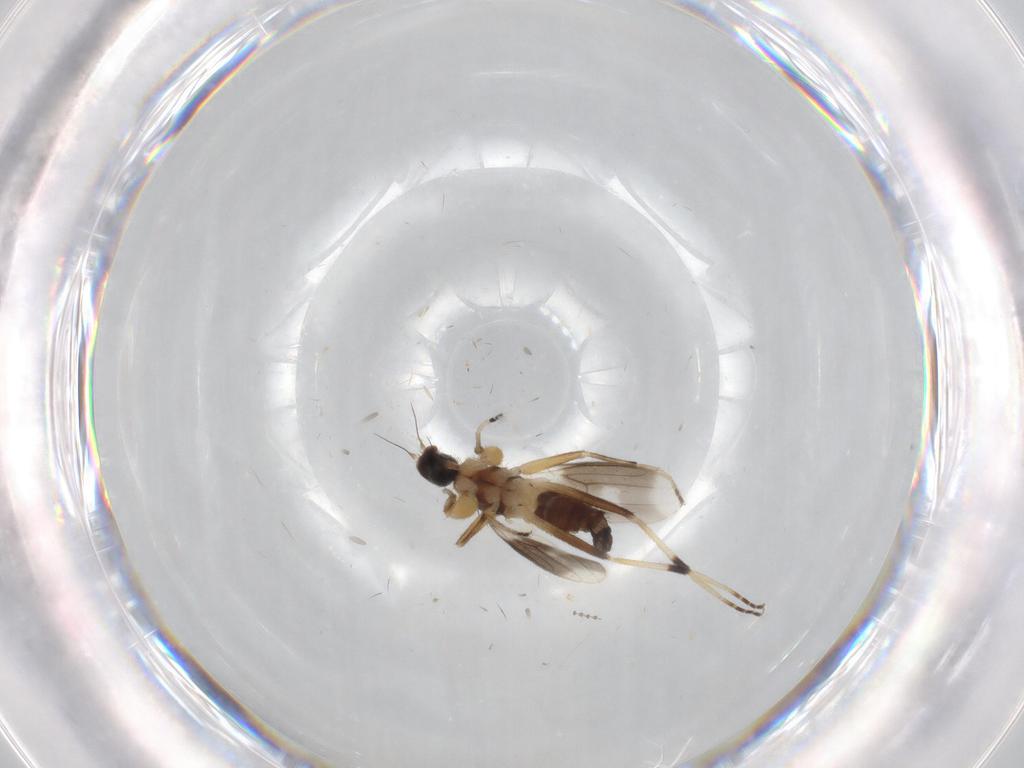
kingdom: Animalia
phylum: Arthropoda
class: Insecta
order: Diptera
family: Hybotidae
